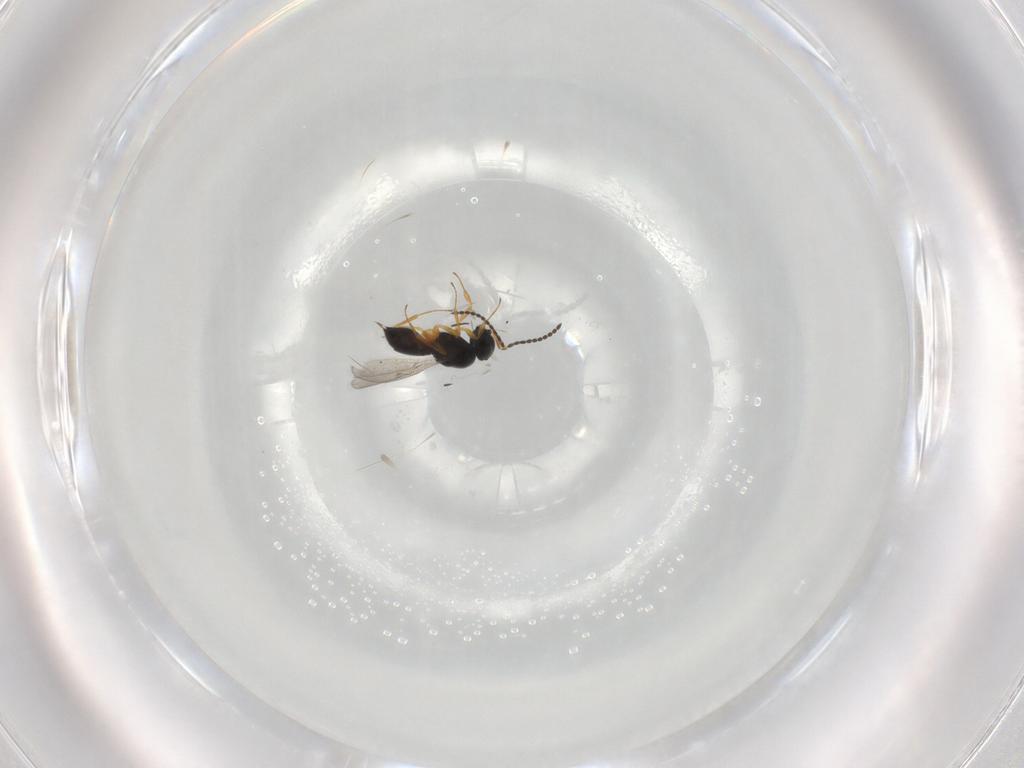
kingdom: Animalia
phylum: Arthropoda
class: Insecta
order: Hymenoptera
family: Scelionidae
